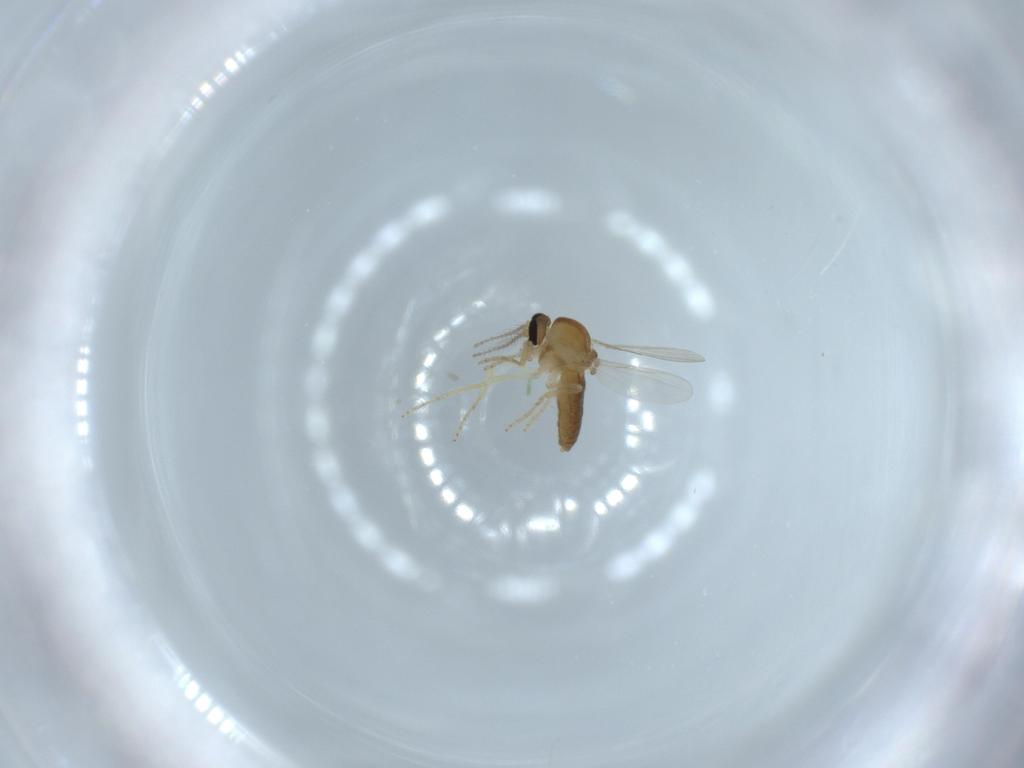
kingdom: Animalia
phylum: Arthropoda
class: Insecta
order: Diptera
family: Ceratopogonidae
